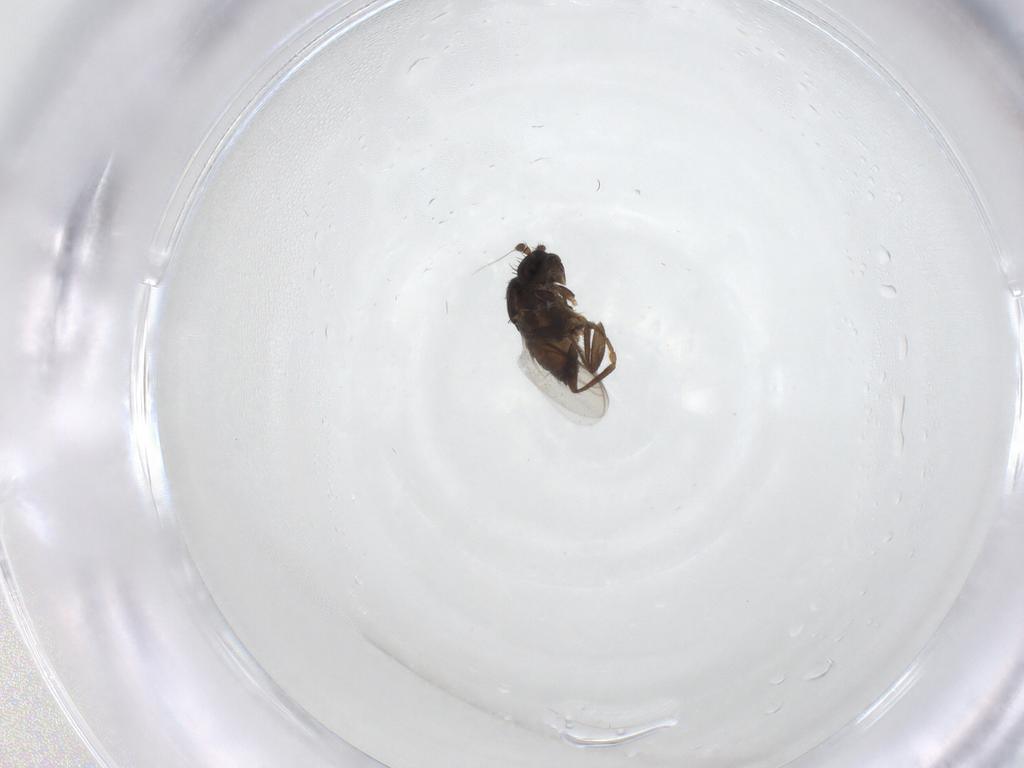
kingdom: Animalia
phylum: Arthropoda
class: Insecta
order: Diptera
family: Sphaeroceridae
